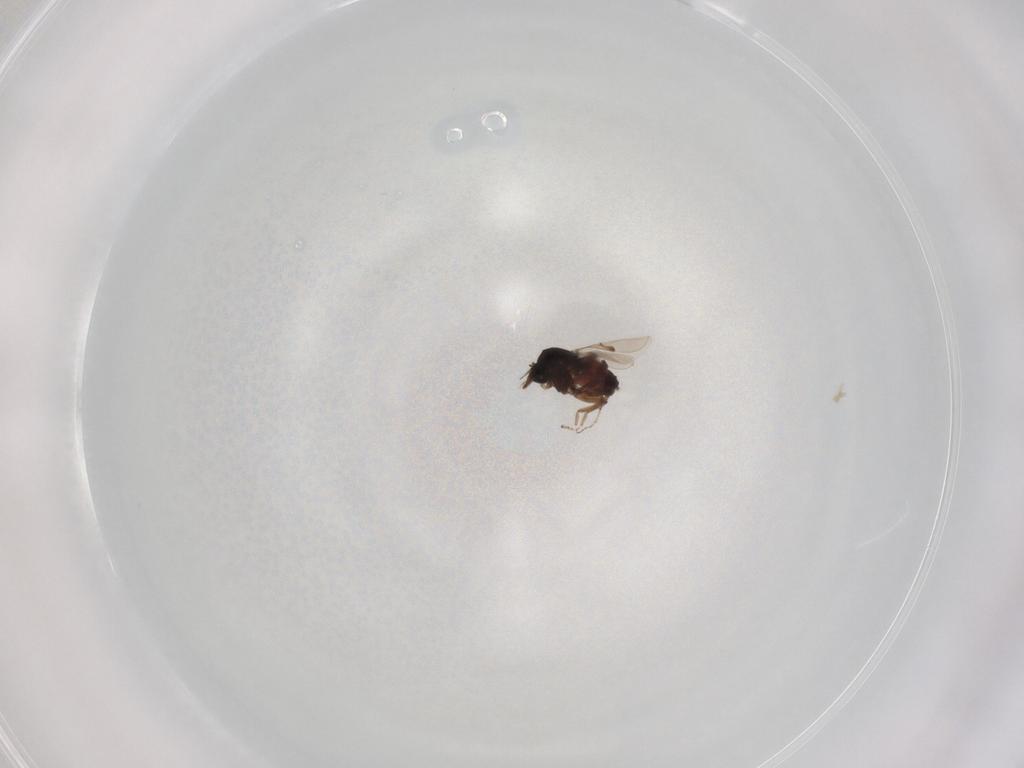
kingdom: Animalia
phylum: Arthropoda
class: Insecta
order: Diptera
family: Ceratopogonidae
